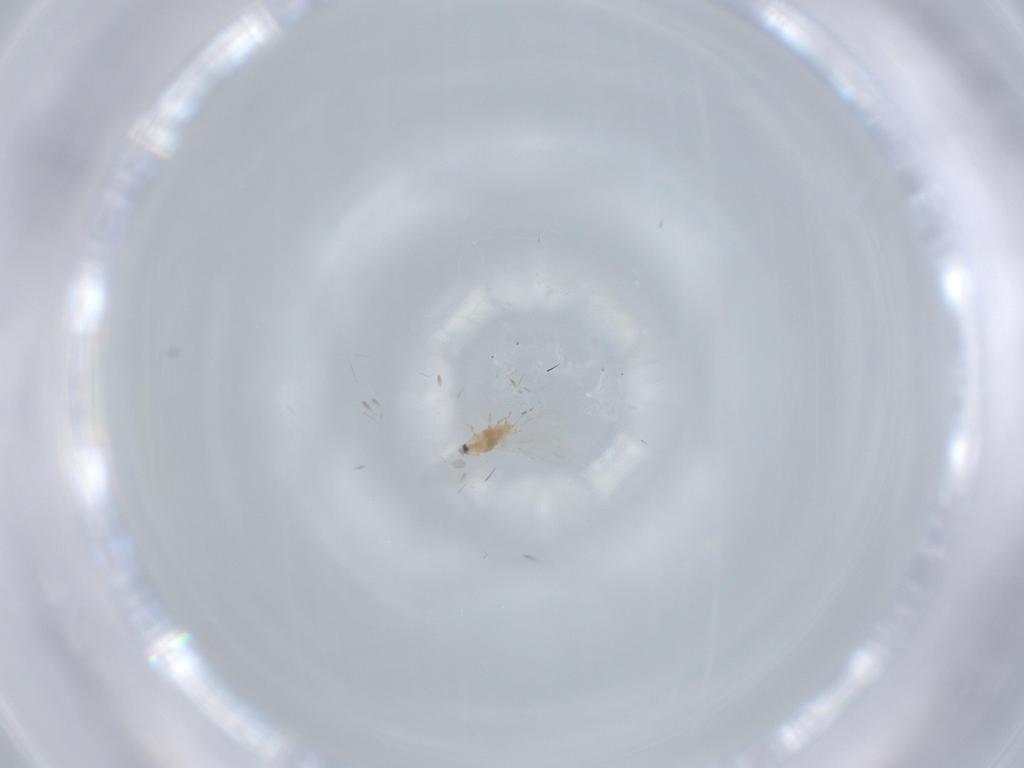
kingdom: Animalia
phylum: Arthropoda
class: Insecta
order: Hemiptera
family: Diaspididae
